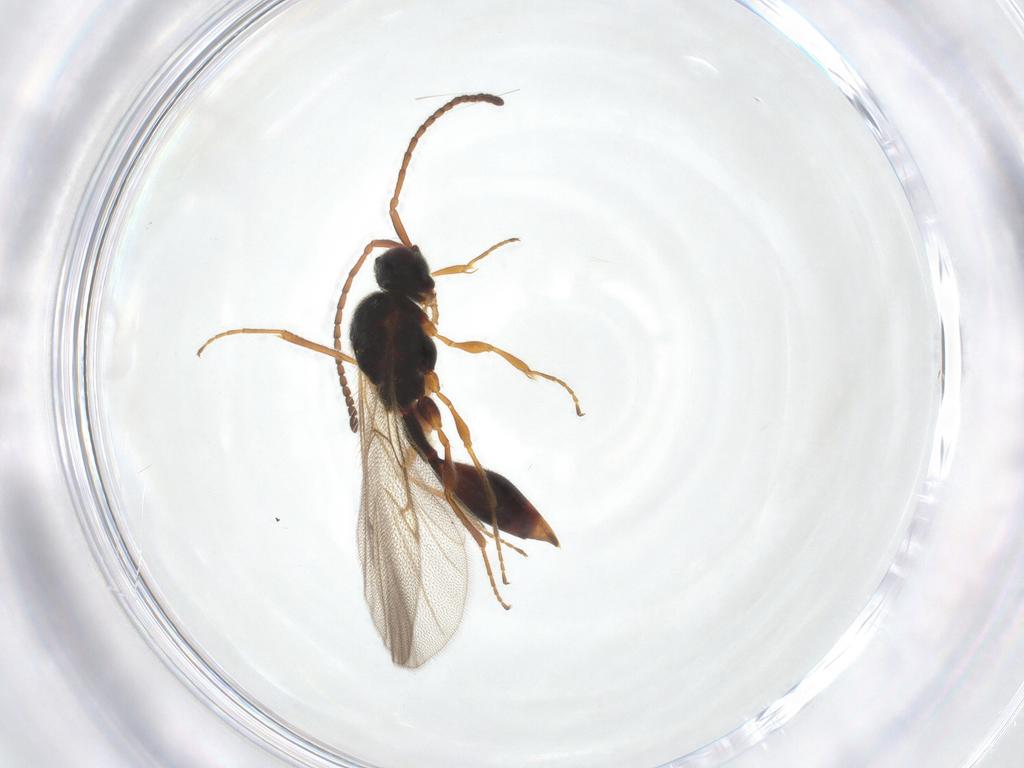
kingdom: Animalia
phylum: Arthropoda
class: Insecta
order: Hymenoptera
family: Diapriidae
